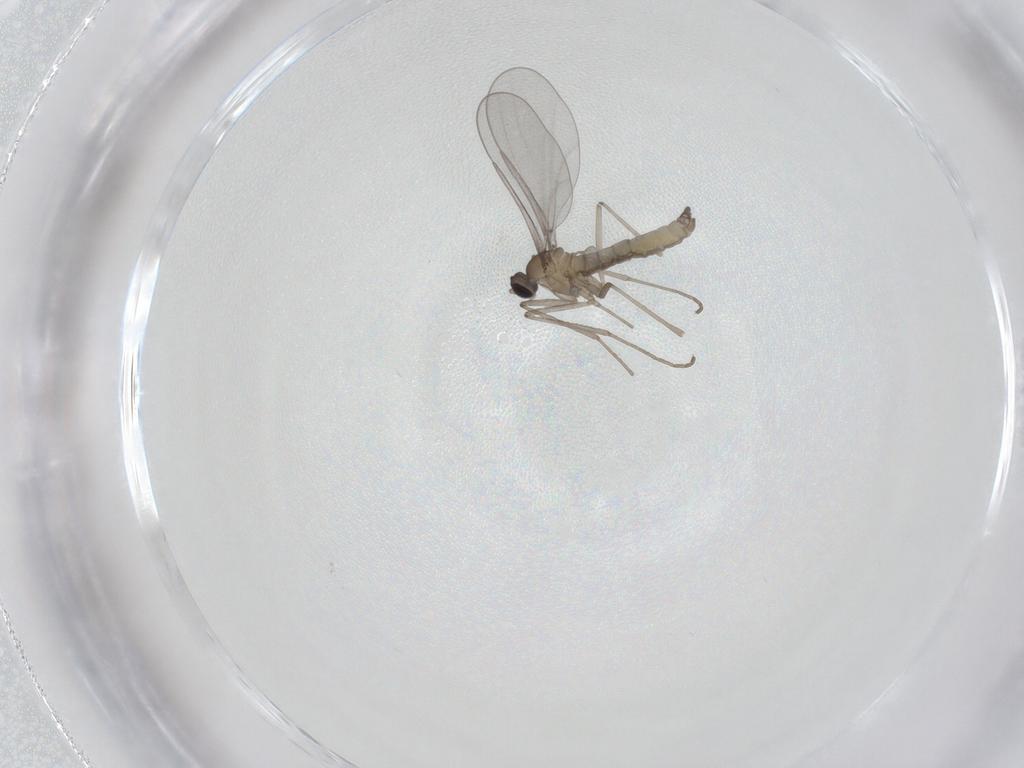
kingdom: Animalia
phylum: Arthropoda
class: Insecta
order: Diptera
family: Cecidomyiidae
